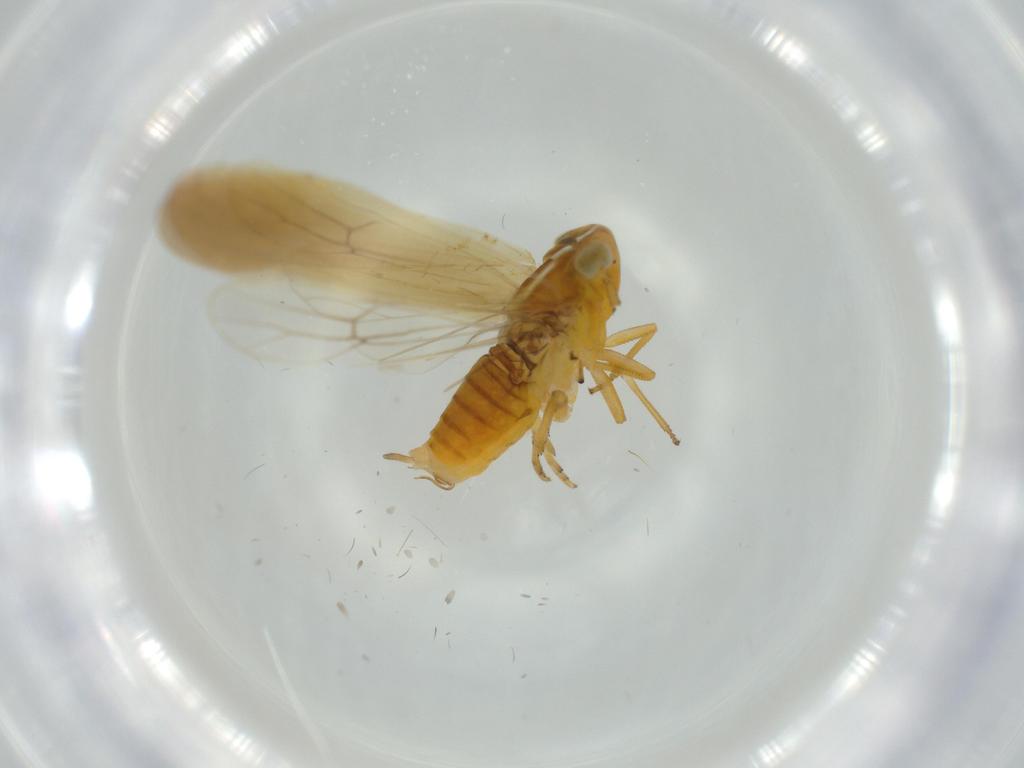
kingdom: Animalia
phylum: Arthropoda
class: Insecta
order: Hemiptera
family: Delphacidae
